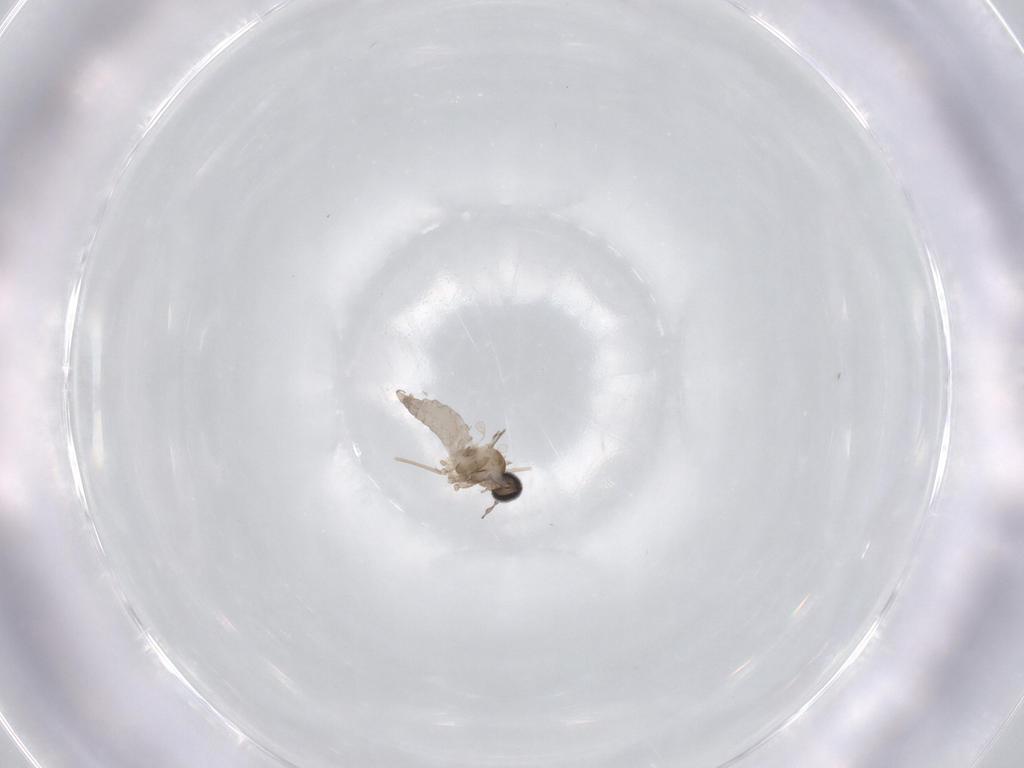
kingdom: Animalia
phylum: Arthropoda
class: Insecta
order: Diptera
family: Cecidomyiidae
